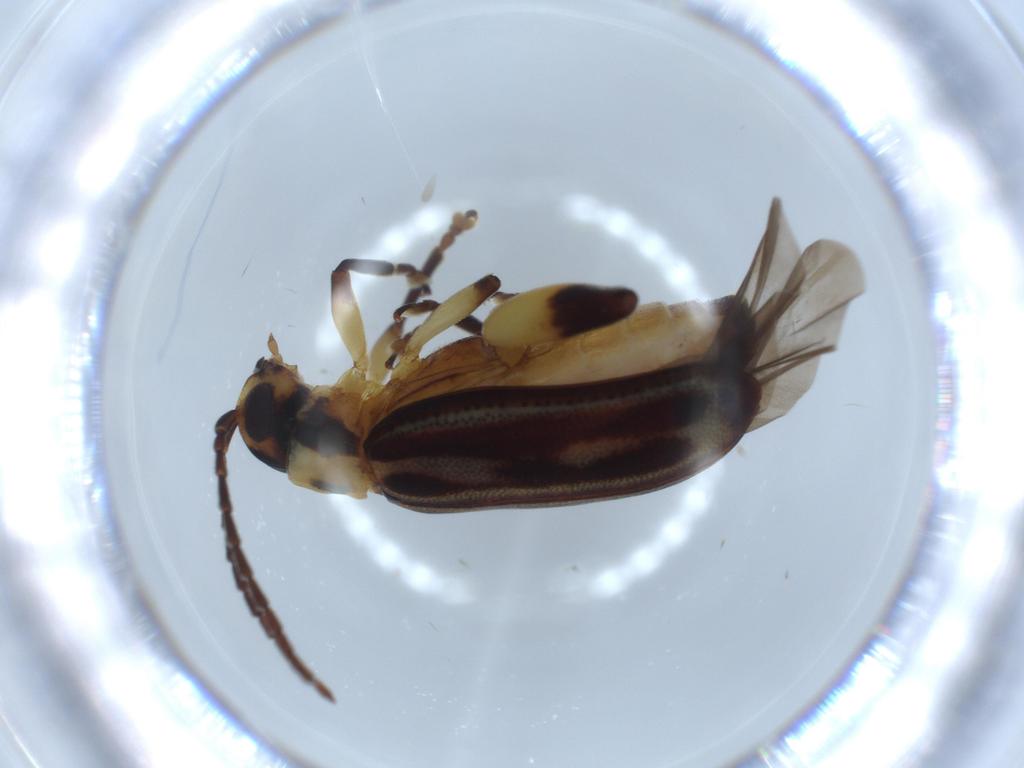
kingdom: Animalia
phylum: Arthropoda
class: Insecta
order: Coleoptera
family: Chrysomelidae
